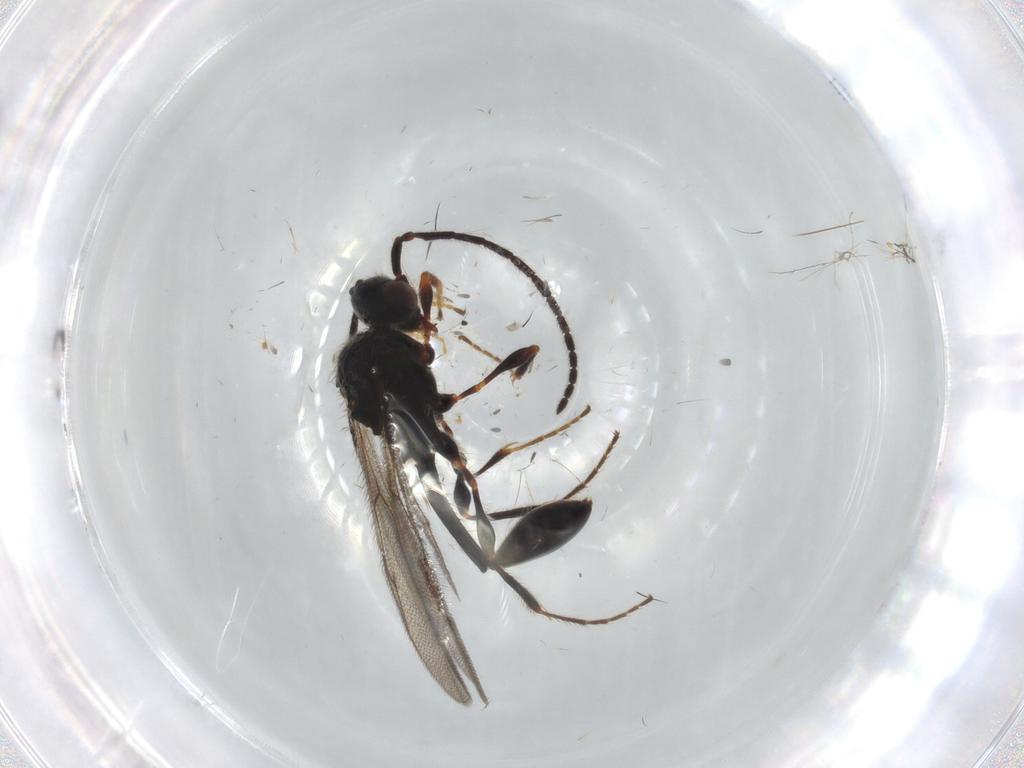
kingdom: Animalia
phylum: Arthropoda
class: Insecta
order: Hymenoptera
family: Diapriidae
